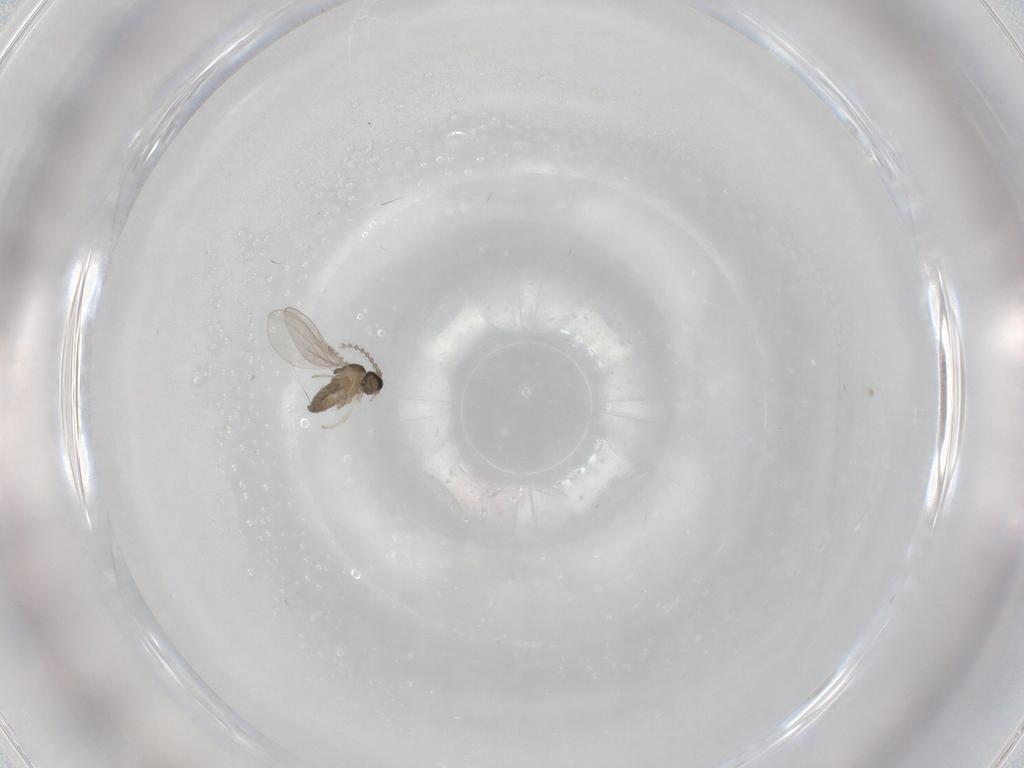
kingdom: Animalia
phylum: Arthropoda
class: Insecta
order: Diptera
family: Cecidomyiidae
